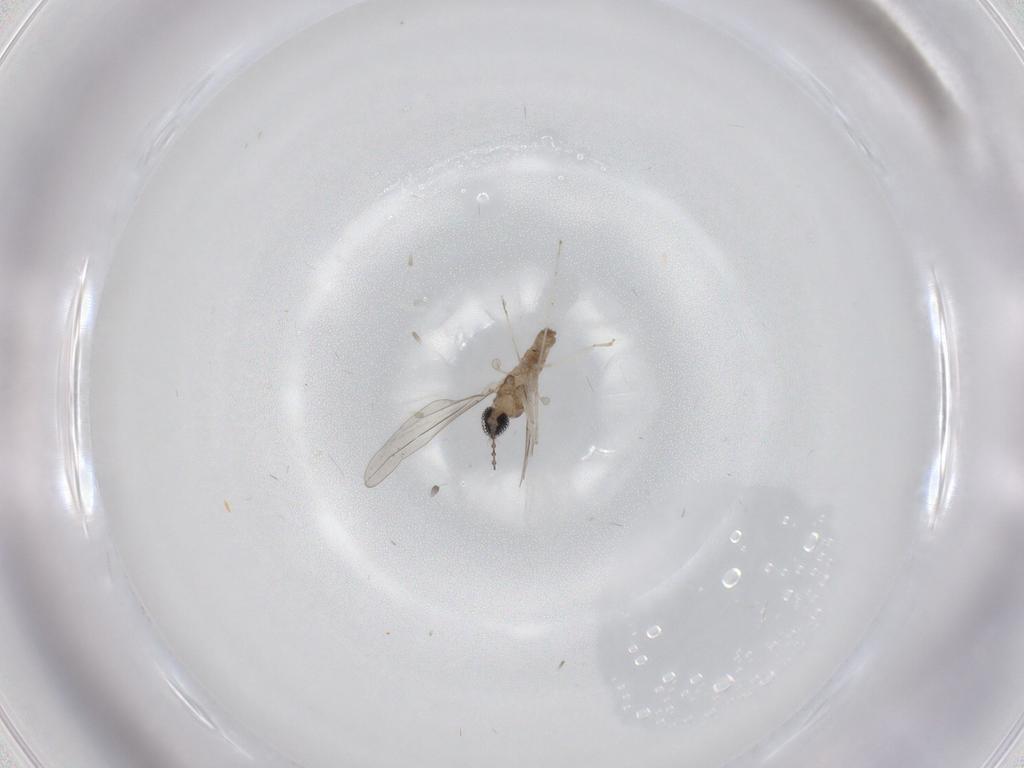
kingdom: Animalia
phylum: Arthropoda
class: Insecta
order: Diptera
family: Cecidomyiidae
